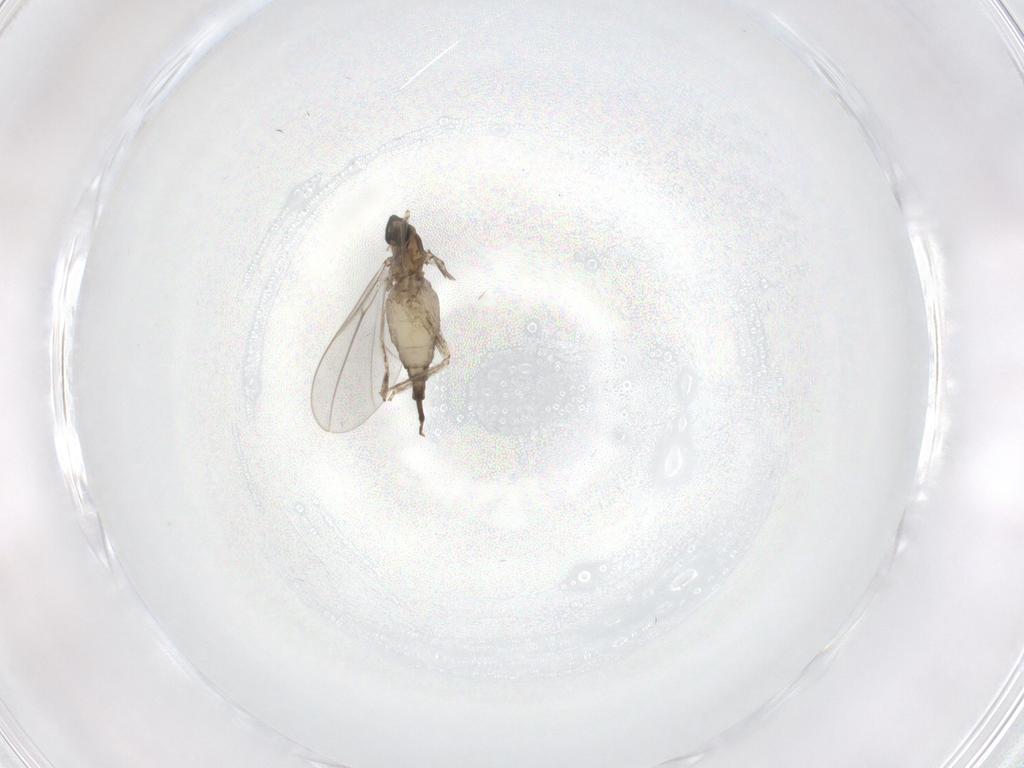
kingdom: Animalia
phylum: Arthropoda
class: Insecta
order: Diptera
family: Cecidomyiidae
